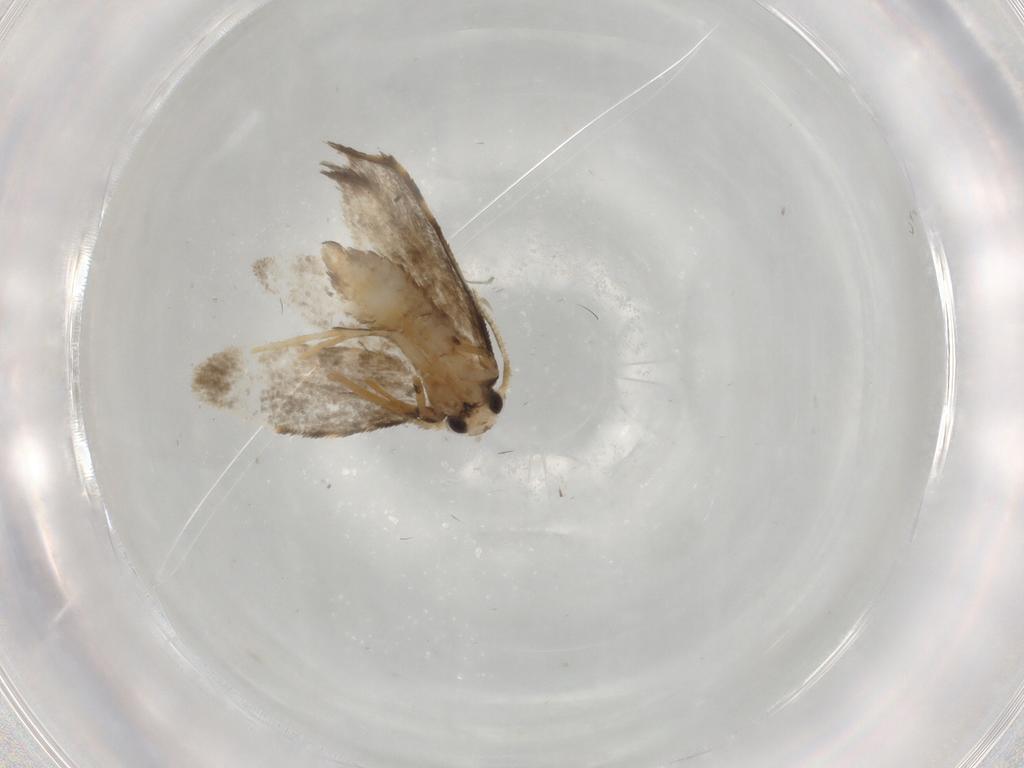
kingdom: Animalia
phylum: Arthropoda
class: Insecta
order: Lepidoptera
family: Psychidae
